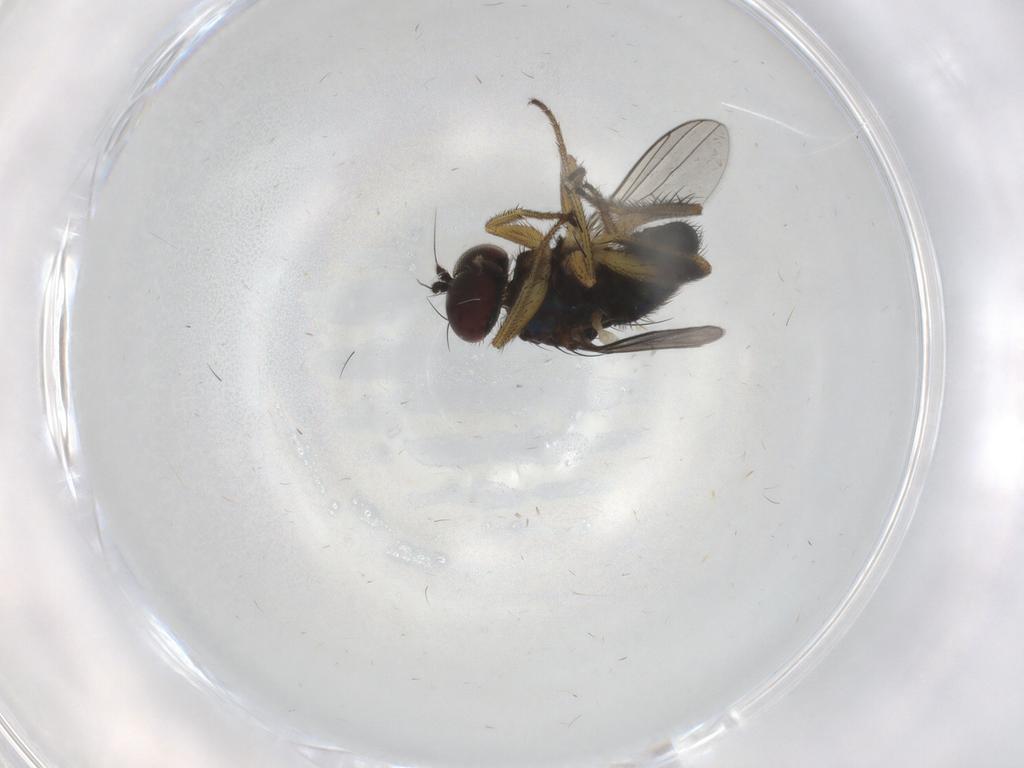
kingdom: Animalia
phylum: Arthropoda
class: Insecta
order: Diptera
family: Dolichopodidae
